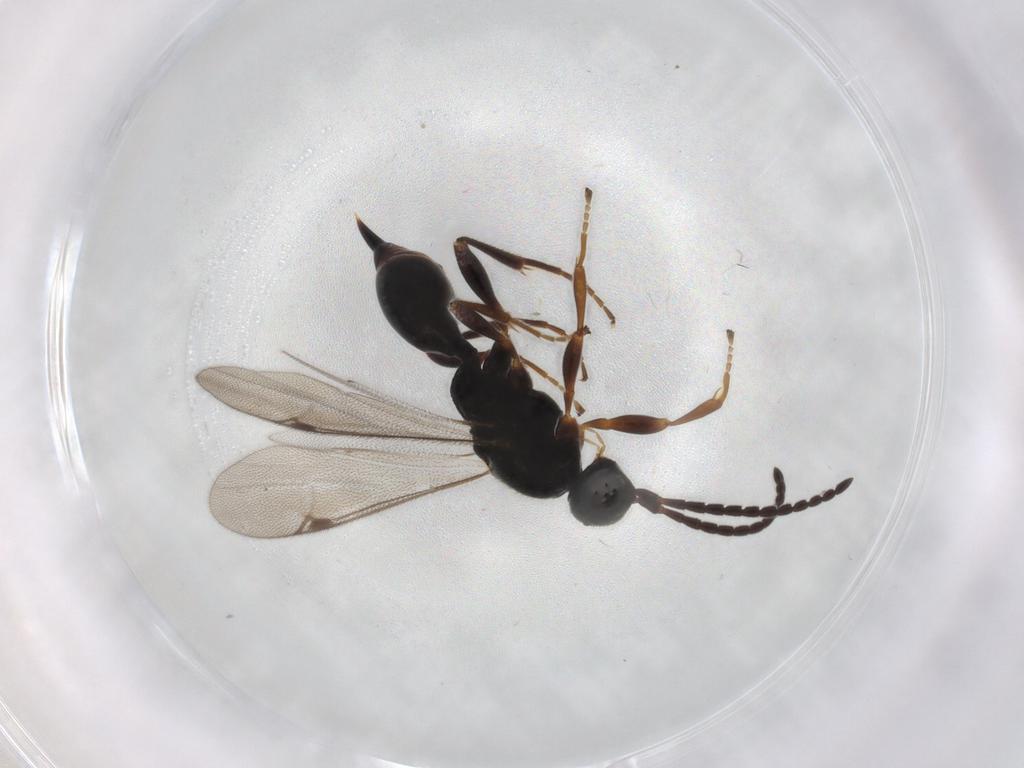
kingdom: Animalia
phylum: Arthropoda
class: Insecta
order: Hymenoptera
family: Proctotrupidae
